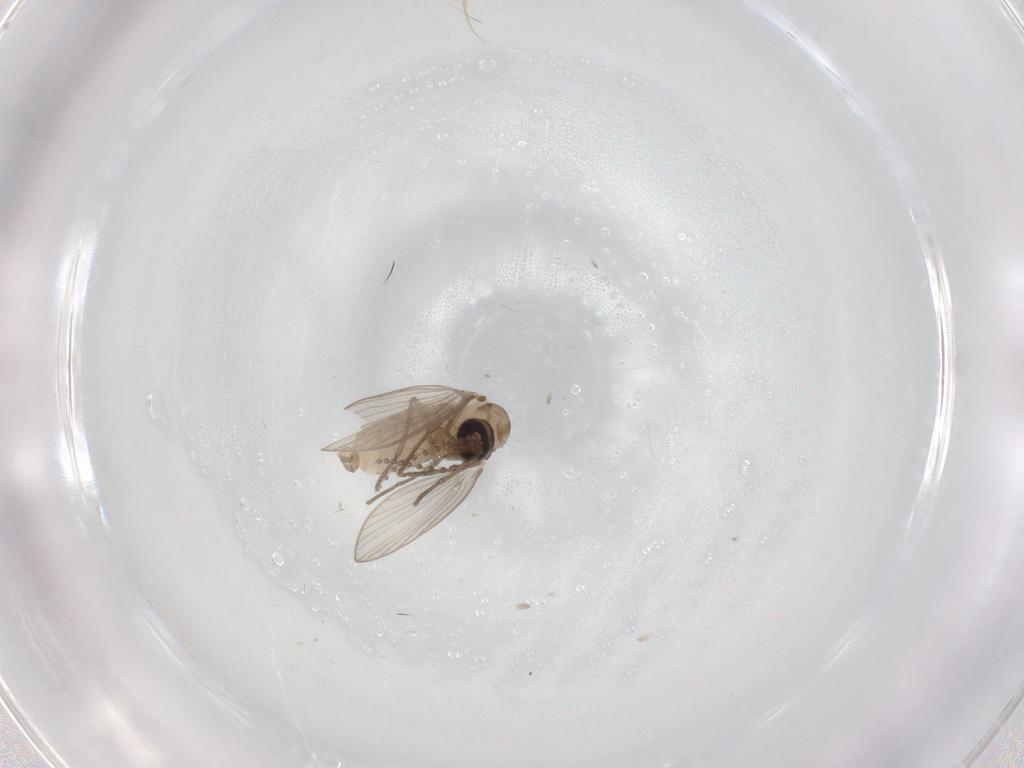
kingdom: Animalia
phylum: Arthropoda
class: Insecta
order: Diptera
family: Psychodidae
